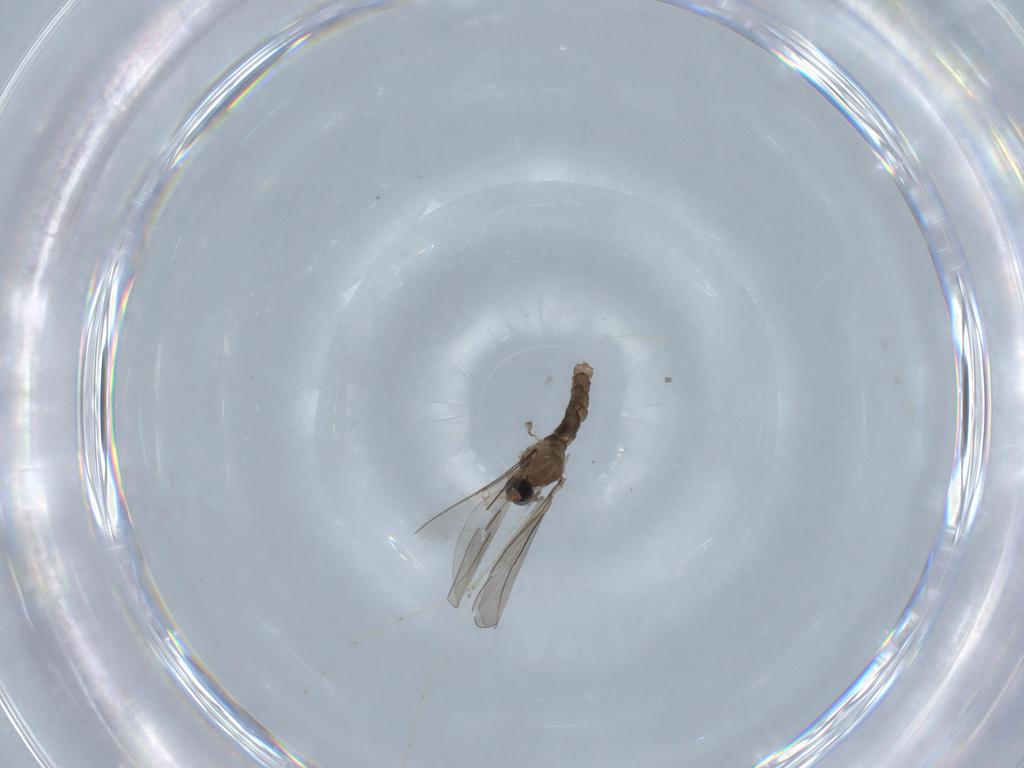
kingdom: Animalia
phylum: Arthropoda
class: Insecta
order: Diptera
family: Cecidomyiidae
